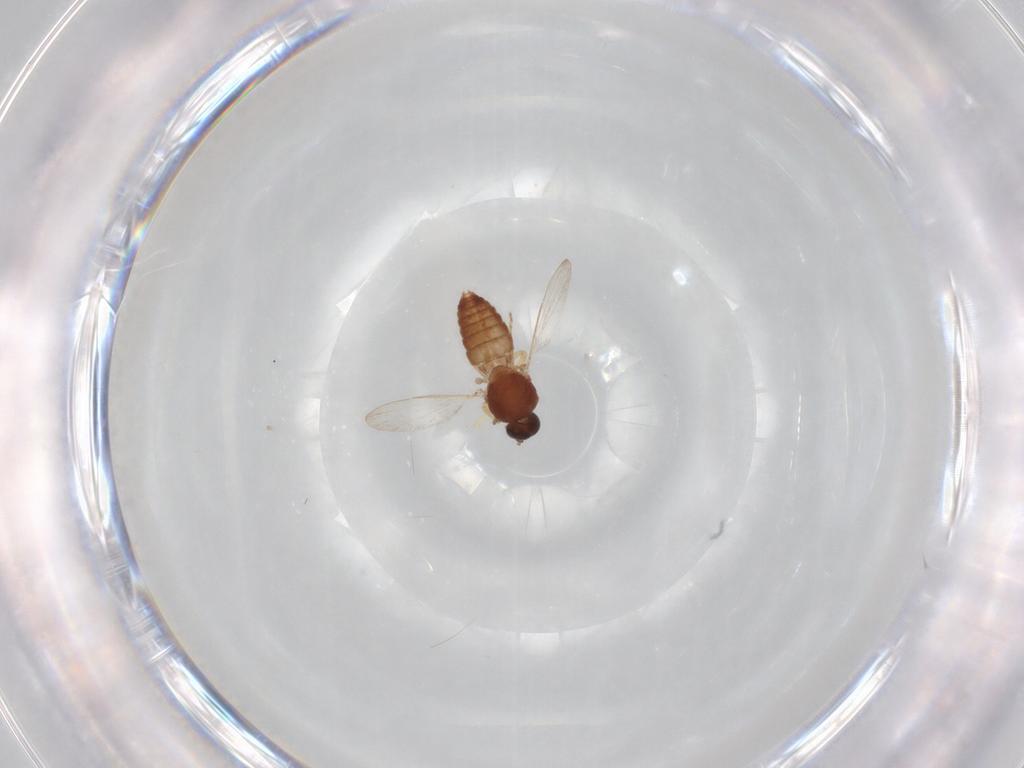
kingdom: Animalia
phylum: Arthropoda
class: Insecta
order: Diptera
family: Ceratopogonidae
